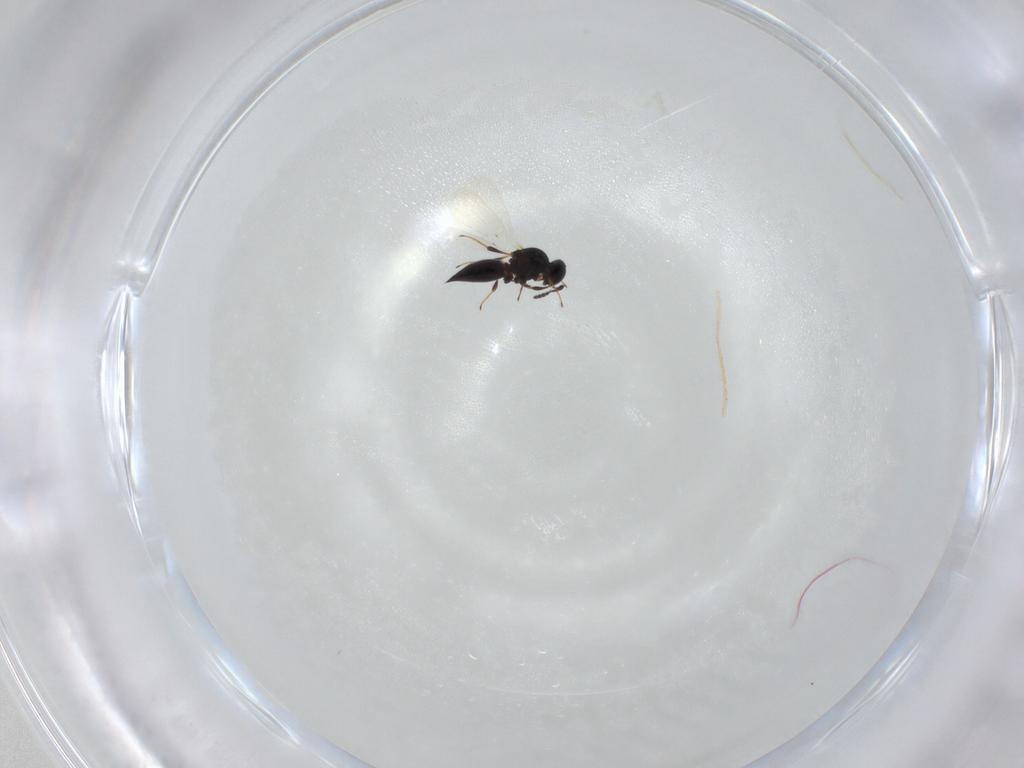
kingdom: Animalia
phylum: Arthropoda
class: Insecta
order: Hymenoptera
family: Platygastridae
